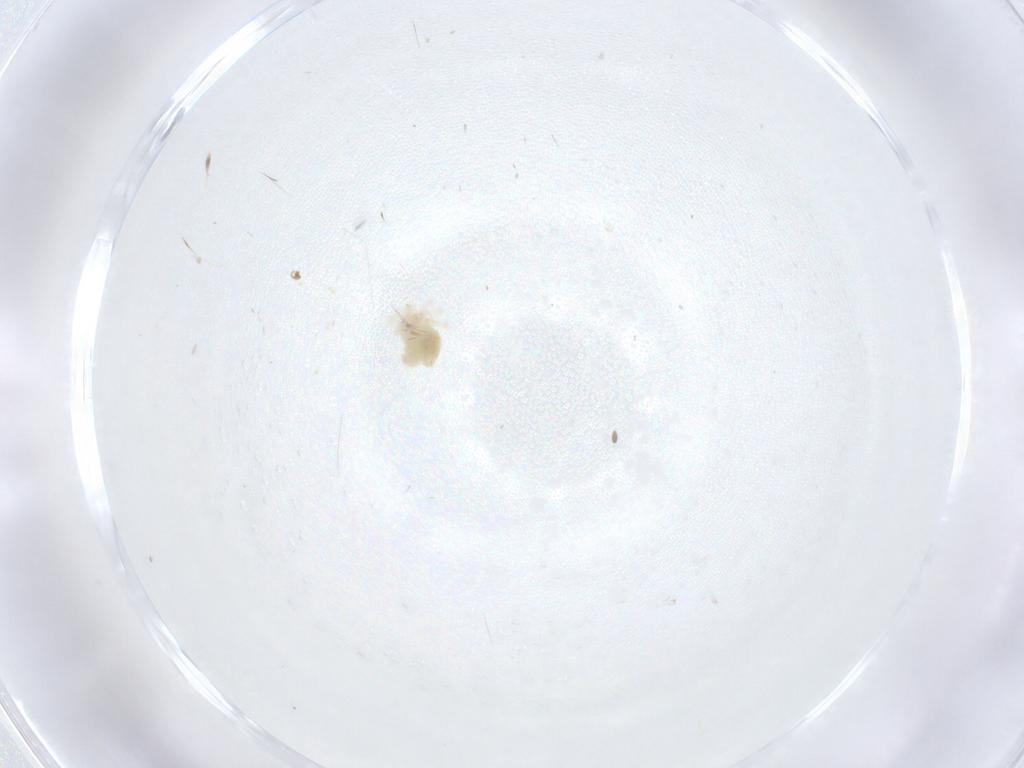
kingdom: Animalia
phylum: Arthropoda
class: Arachnida
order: Trombidiformes
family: Anystidae
